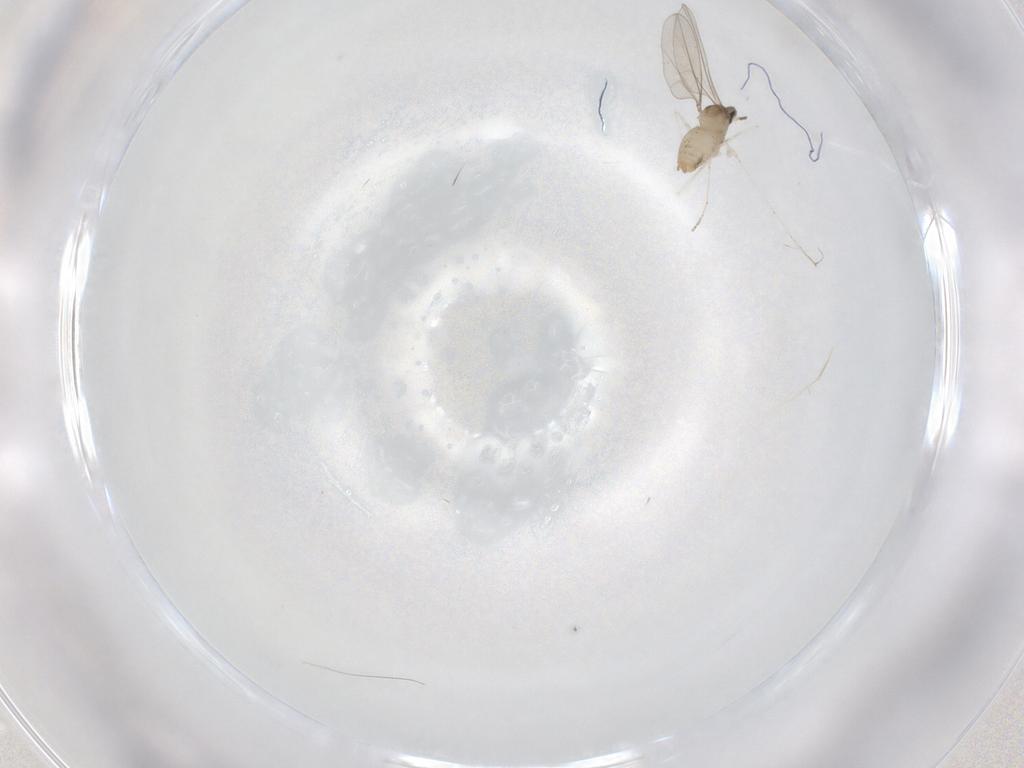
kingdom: Animalia
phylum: Arthropoda
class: Insecta
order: Diptera
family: Cecidomyiidae
